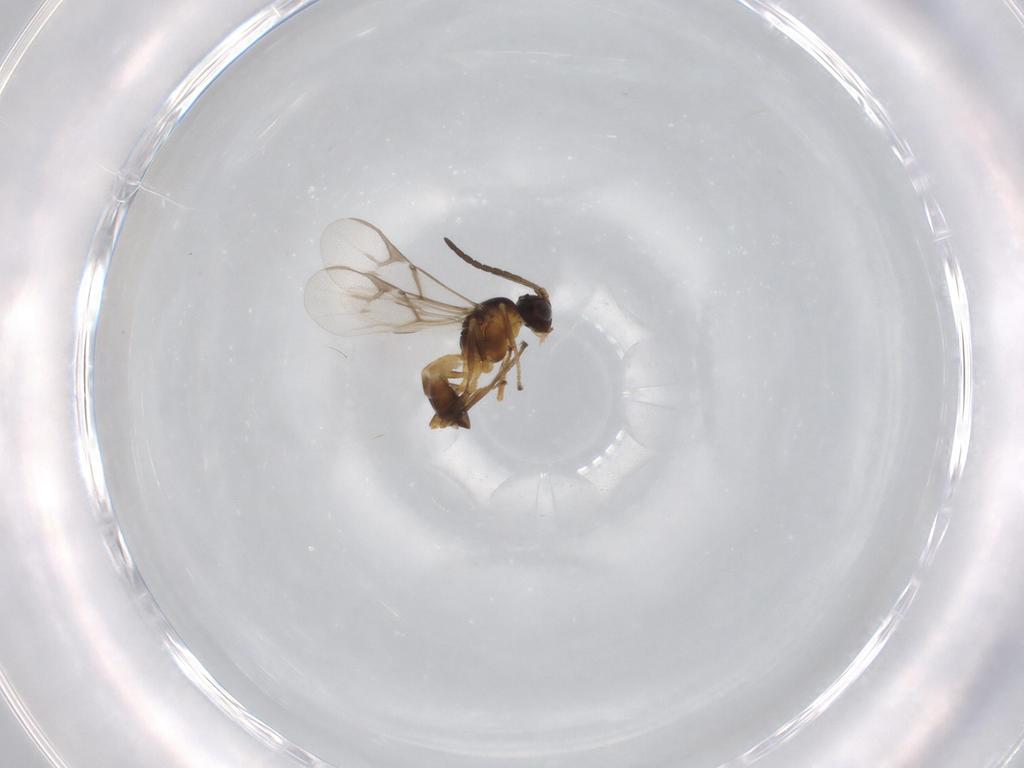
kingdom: Animalia
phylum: Arthropoda
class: Insecta
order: Hymenoptera
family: Braconidae
